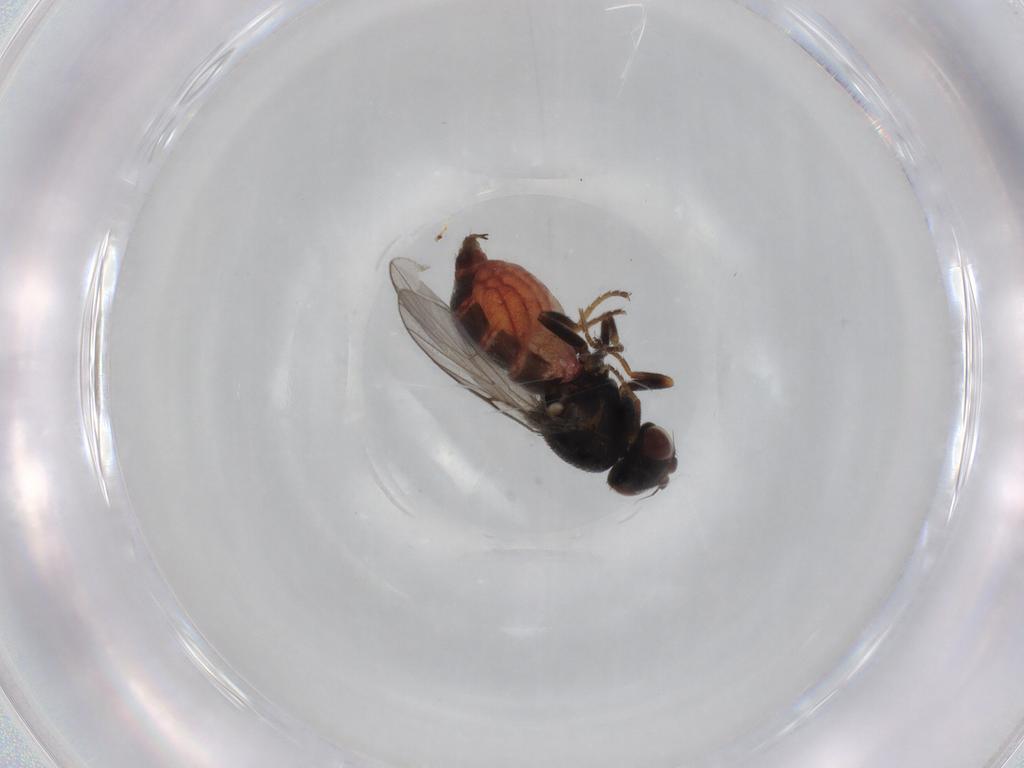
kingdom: Animalia
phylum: Arthropoda
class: Insecta
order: Diptera
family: Chloropidae
